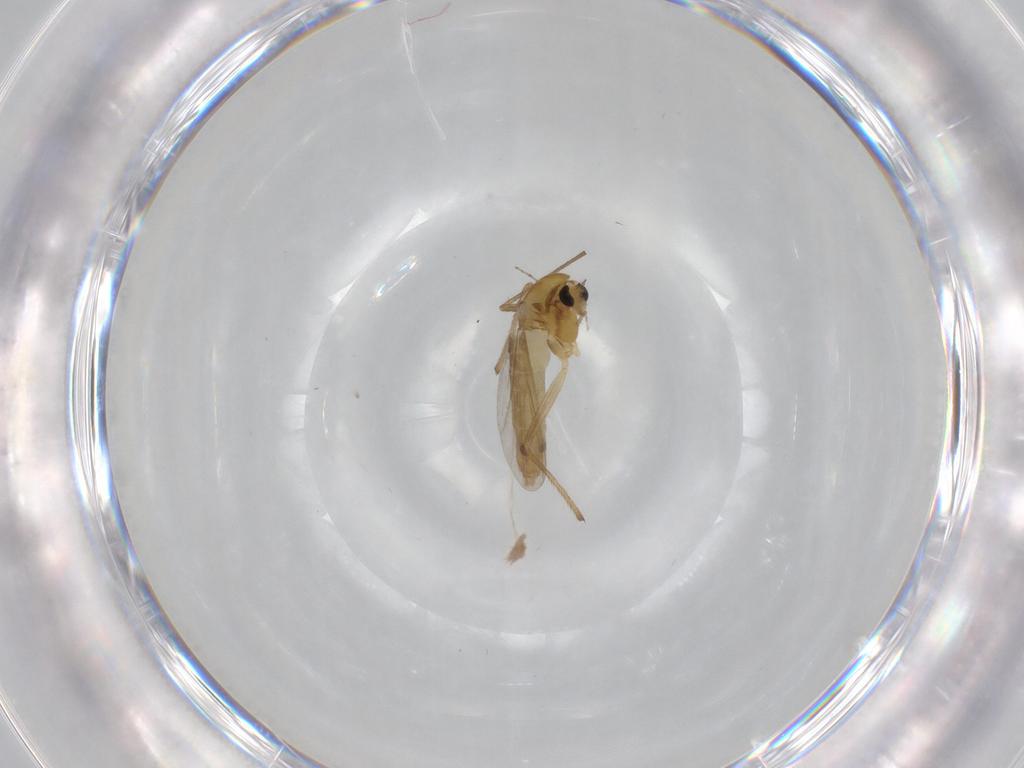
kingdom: Animalia
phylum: Arthropoda
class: Insecta
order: Diptera
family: Chironomidae
